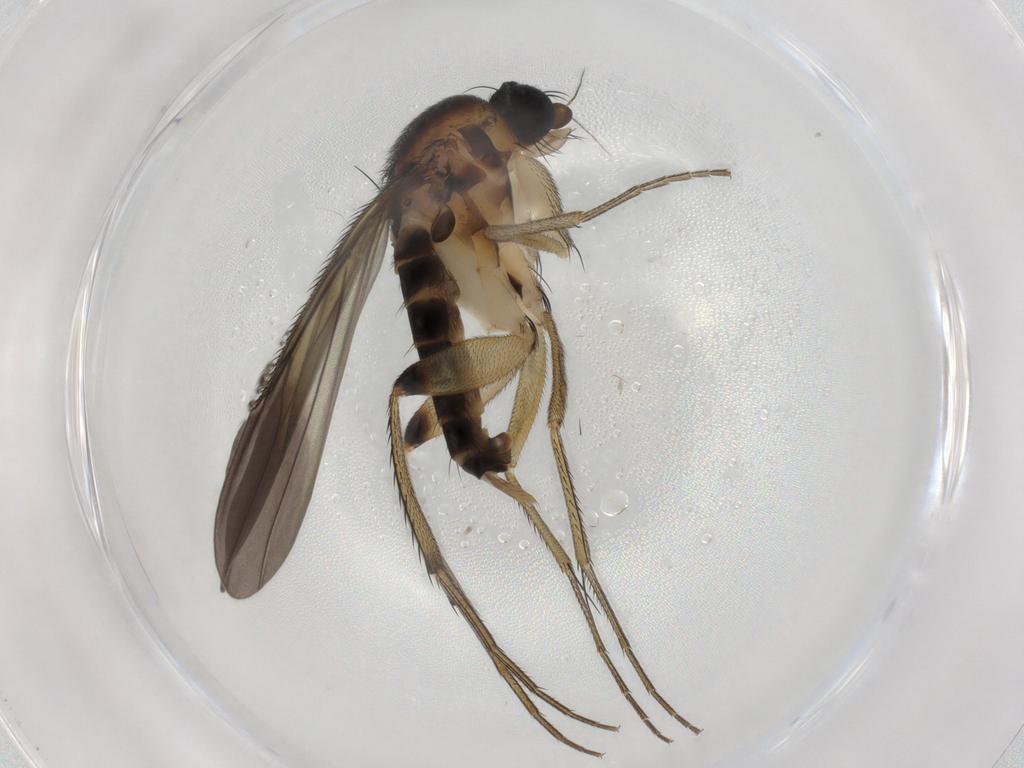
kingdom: Animalia
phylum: Arthropoda
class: Insecta
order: Diptera
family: Phoridae
